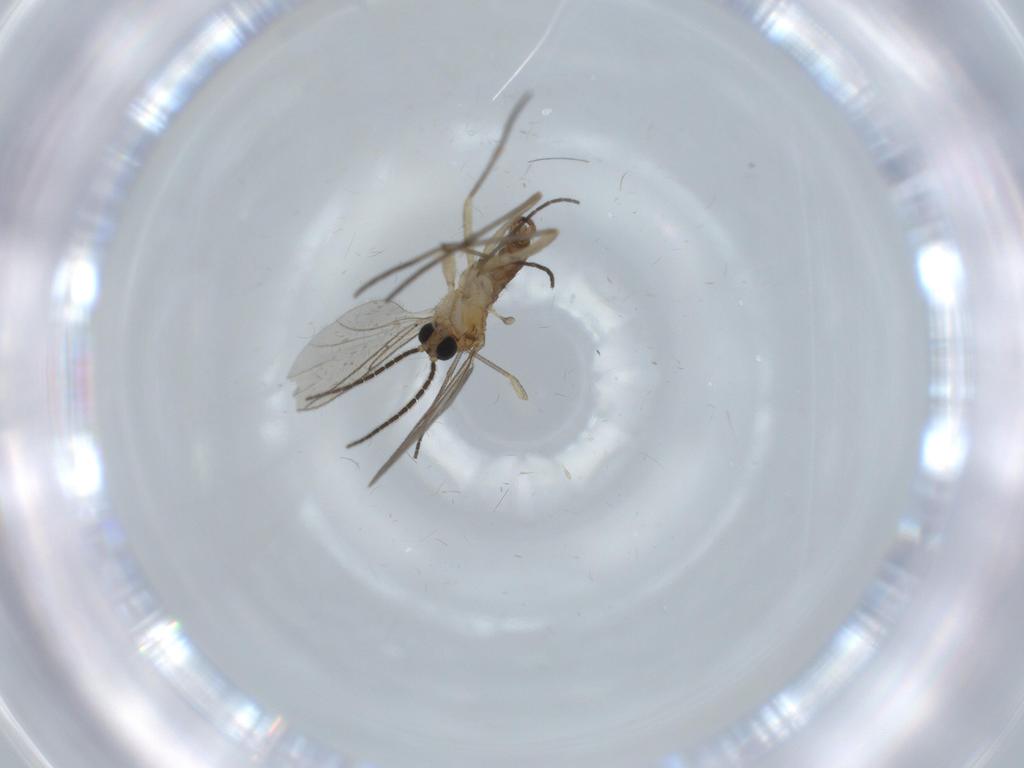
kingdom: Animalia
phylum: Arthropoda
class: Insecta
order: Diptera
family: Sciaridae
